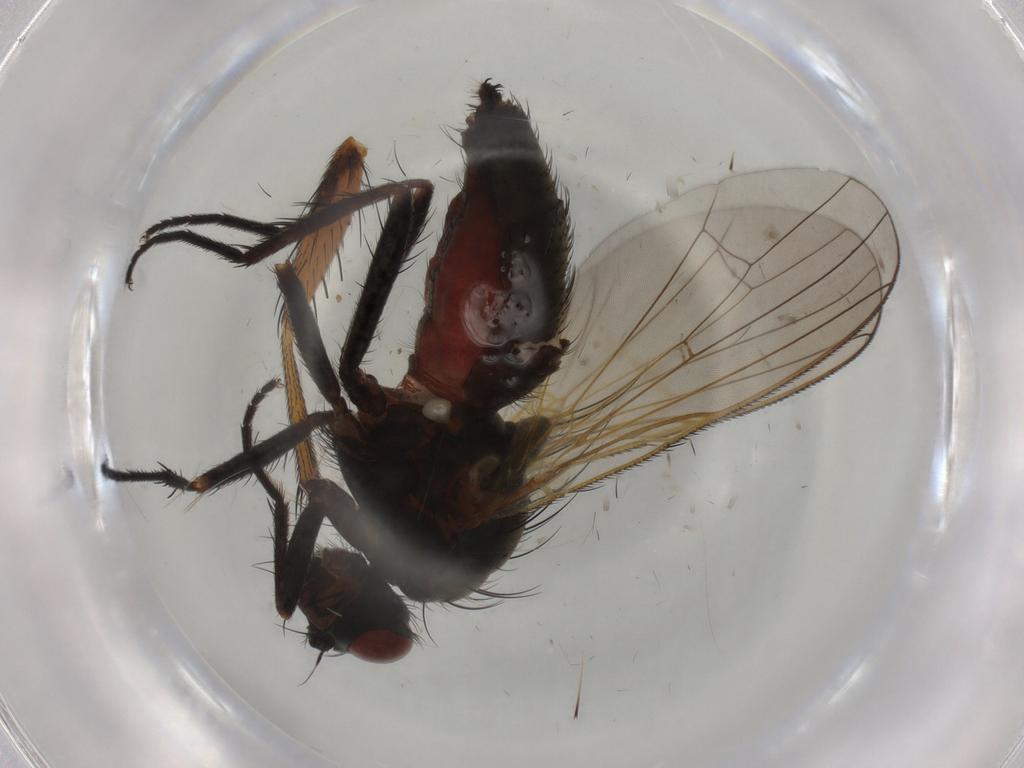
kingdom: Animalia
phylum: Arthropoda
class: Insecta
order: Diptera
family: Anthomyiidae
